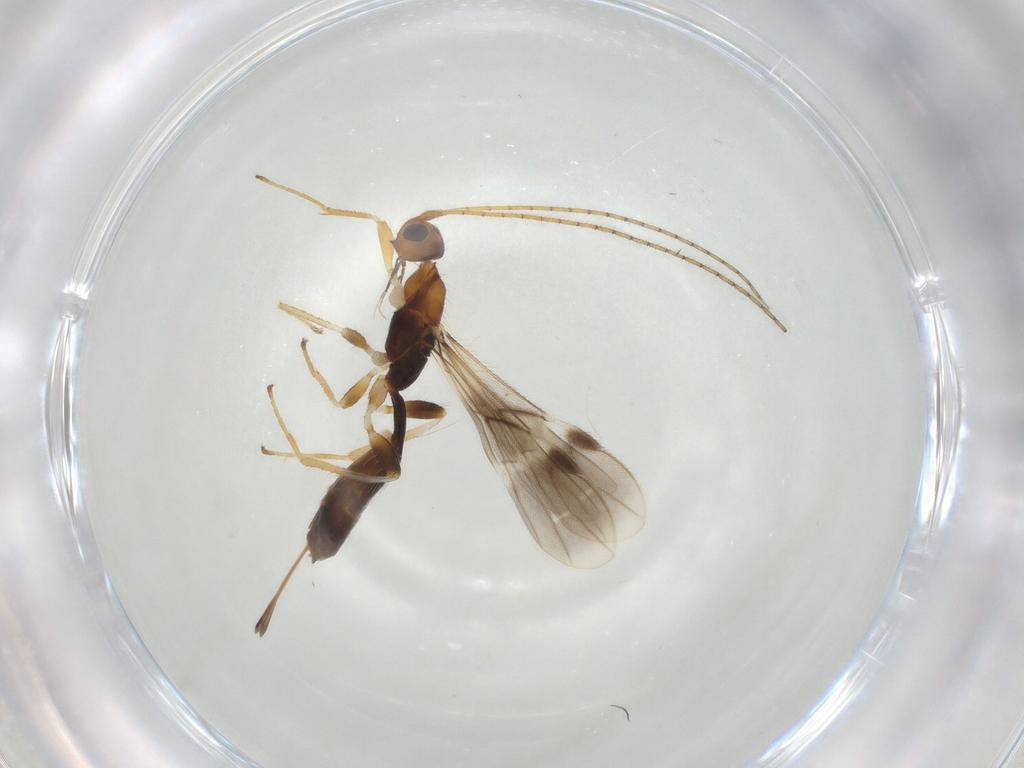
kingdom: Animalia
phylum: Arthropoda
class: Insecta
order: Hymenoptera
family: Braconidae
